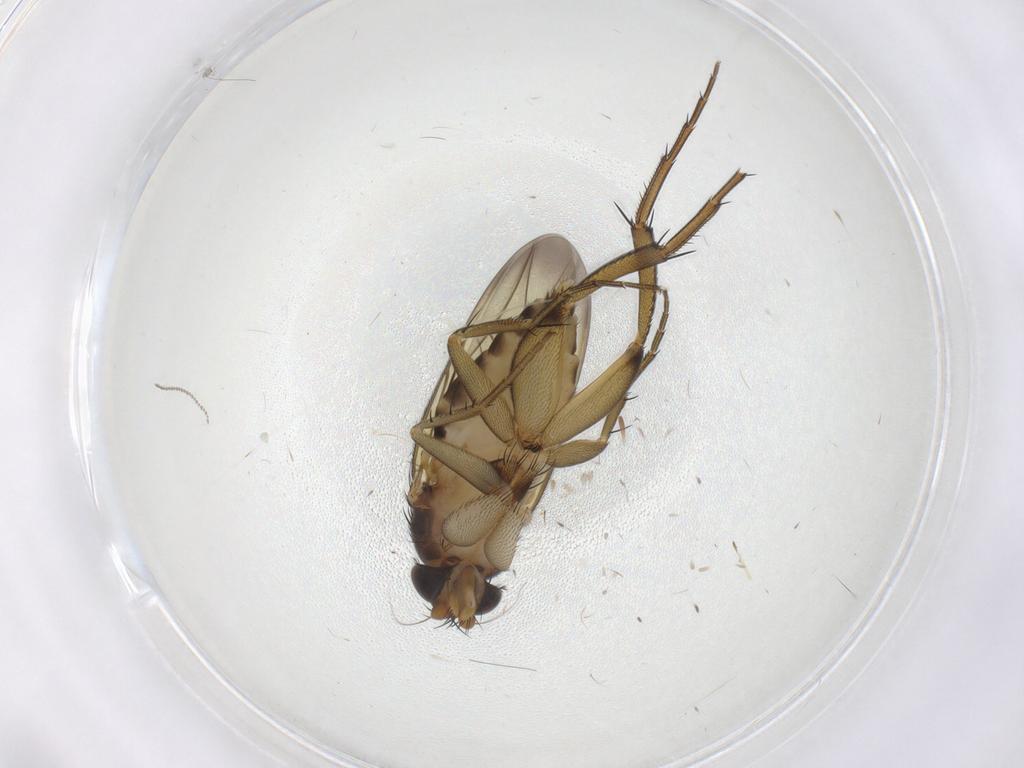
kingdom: Animalia
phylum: Arthropoda
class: Insecta
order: Diptera
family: Phoridae
